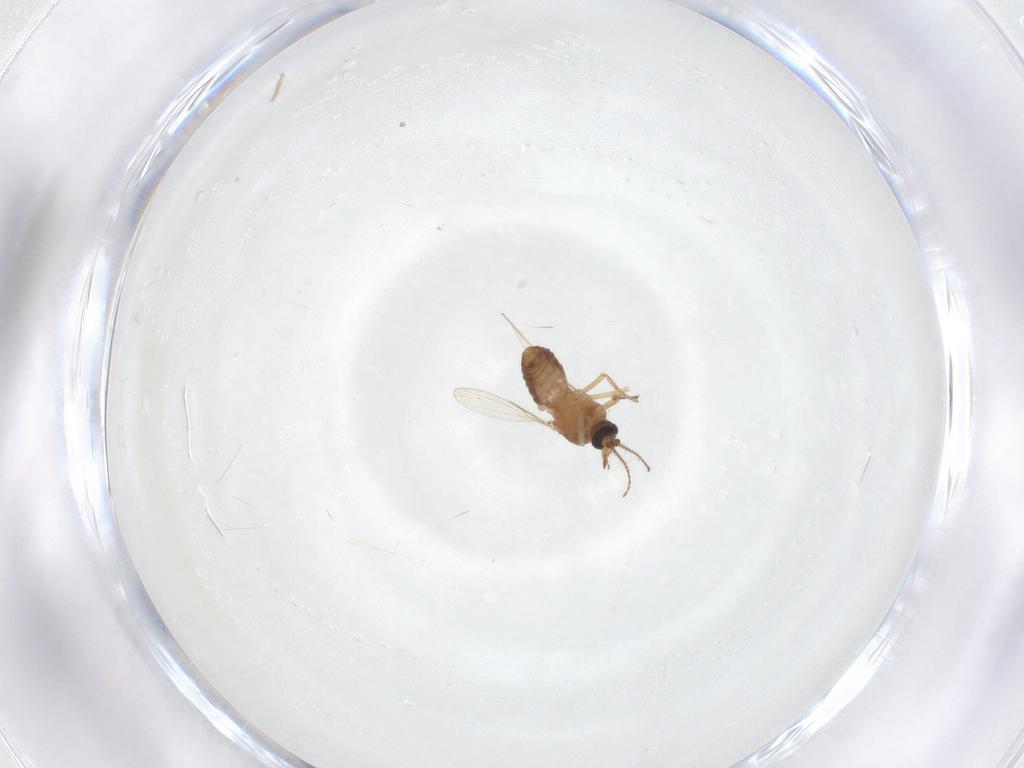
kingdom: Animalia
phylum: Arthropoda
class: Insecta
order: Diptera
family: Ceratopogonidae
